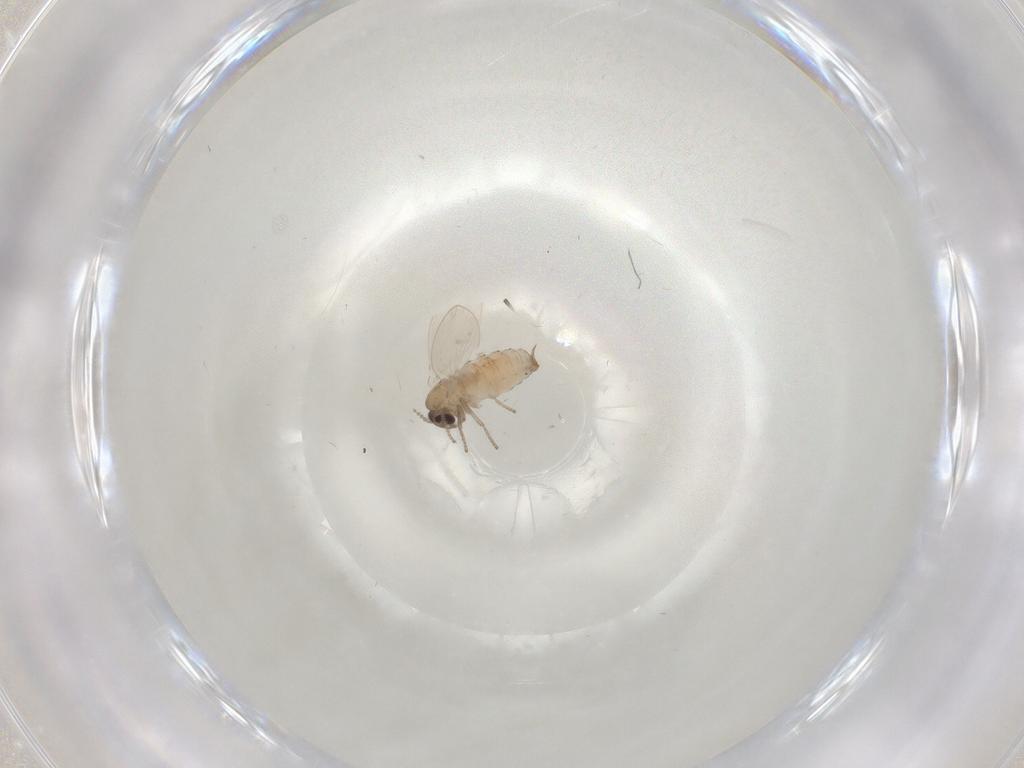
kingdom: Animalia
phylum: Arthropoda
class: Insecta
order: Diptera
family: Psychodidae
